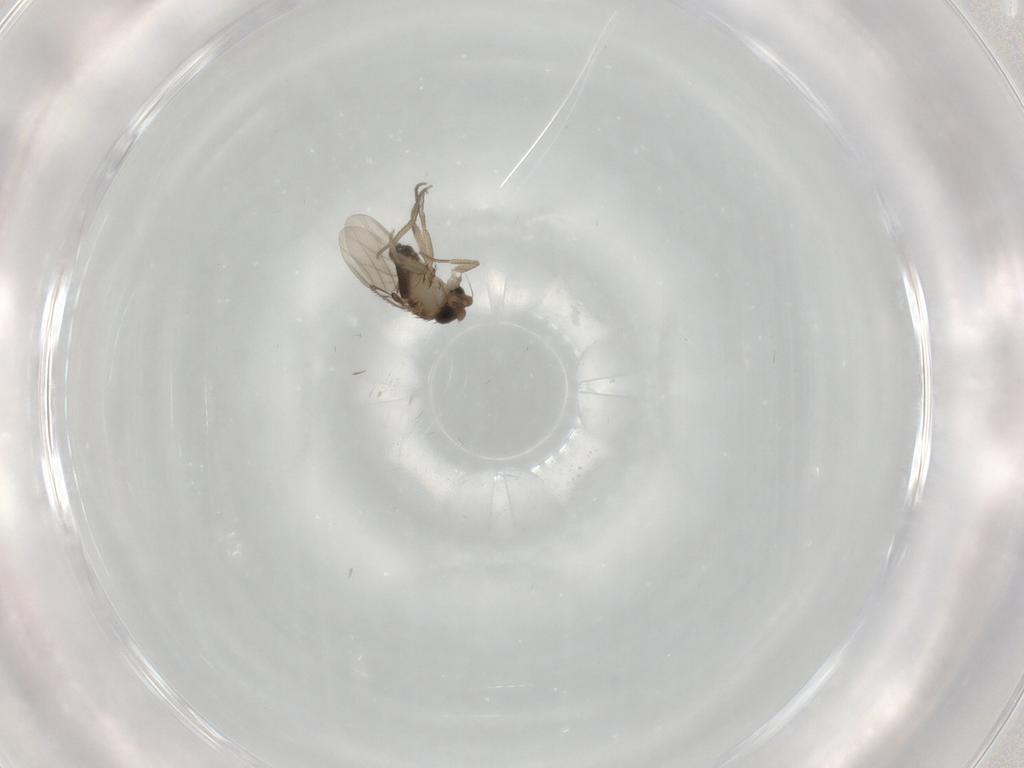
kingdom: Animalia
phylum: Arthropoda
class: Insecta
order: Diptera
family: Phoridae
